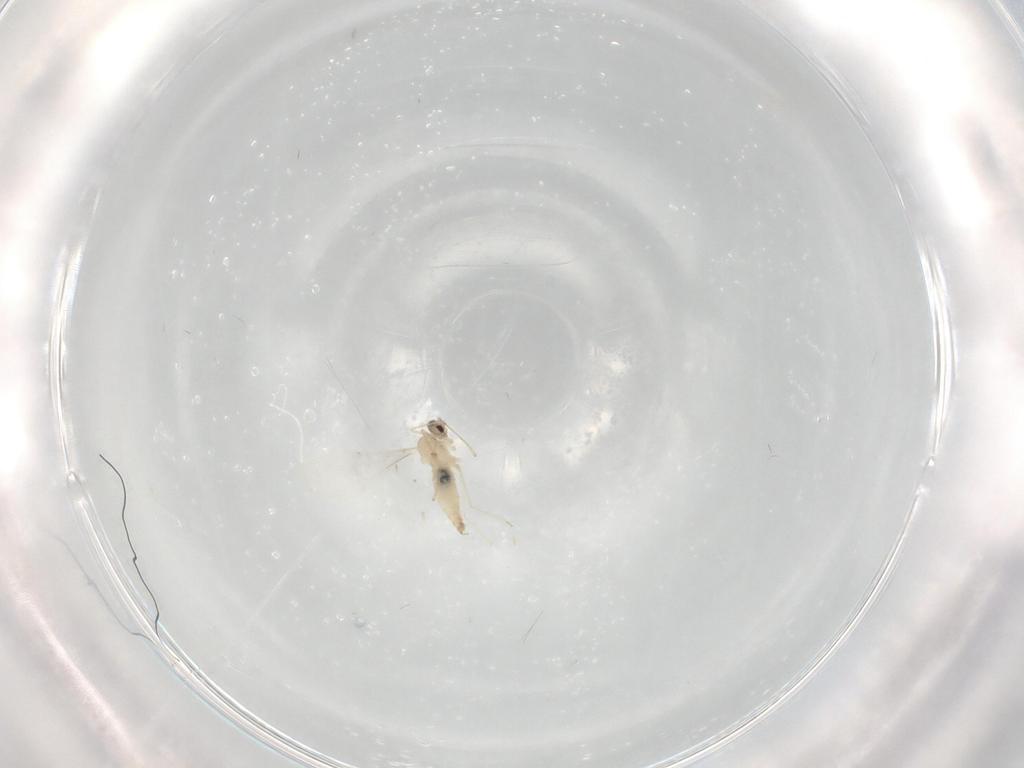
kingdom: Animalia
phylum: Arthropoda
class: Insecta
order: Diptera
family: Cecidomyiidae
